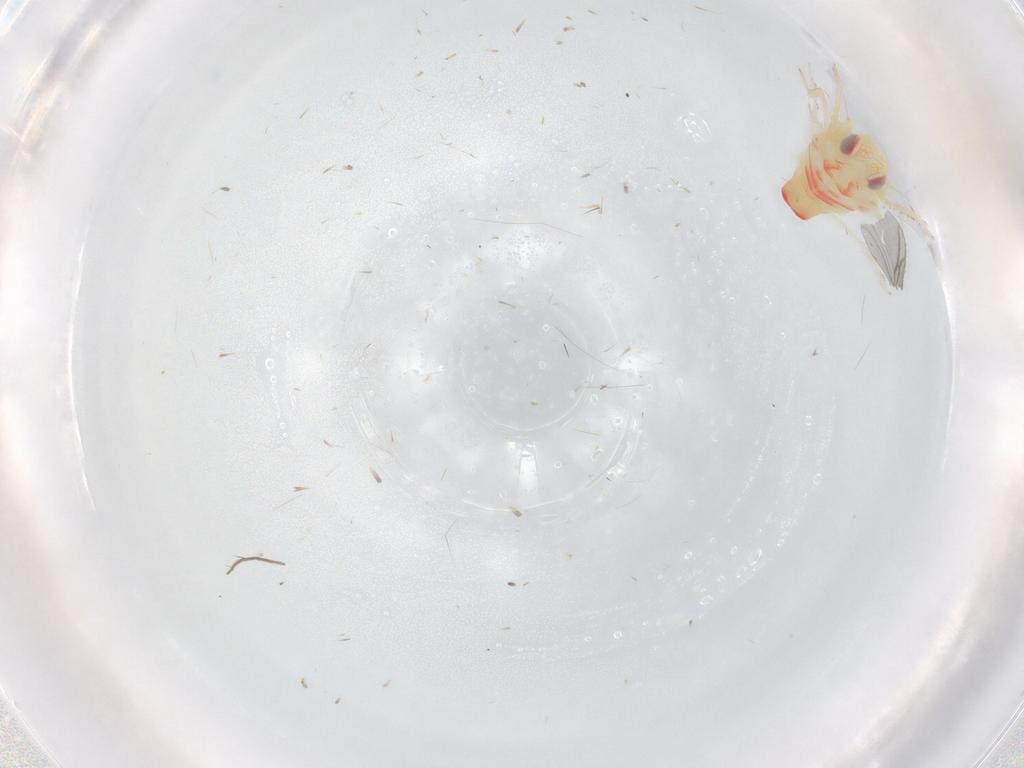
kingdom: Animalia
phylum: Arthropoda
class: Insecta
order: Hemiptera
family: Tropiduchidae
